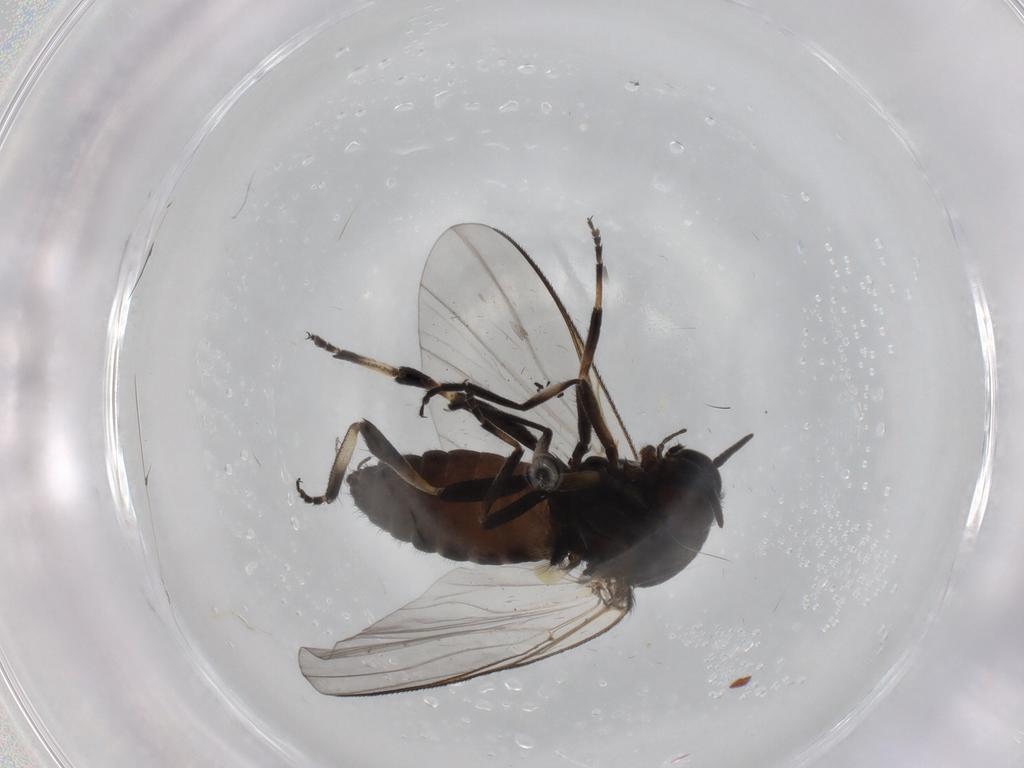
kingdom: Animalia
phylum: Arthropoda
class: Insecta
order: Diptera
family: Simuliidae
